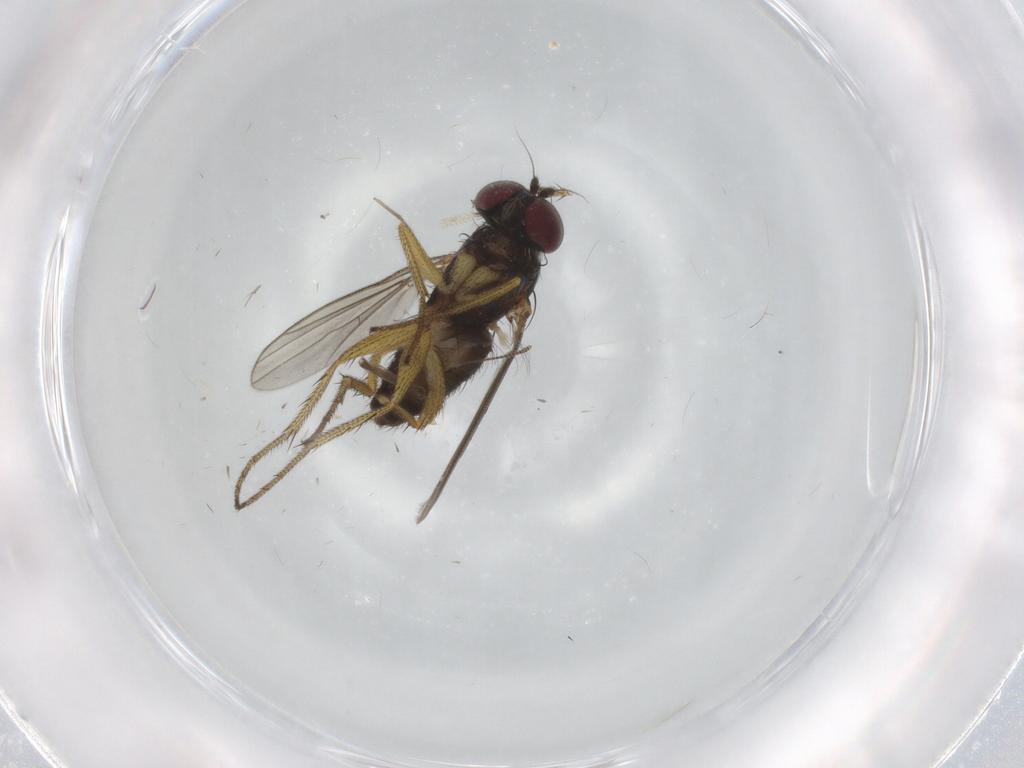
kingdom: Animalia
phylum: Arthropoda
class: Insecta
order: Diptera
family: Dolichopodidae
